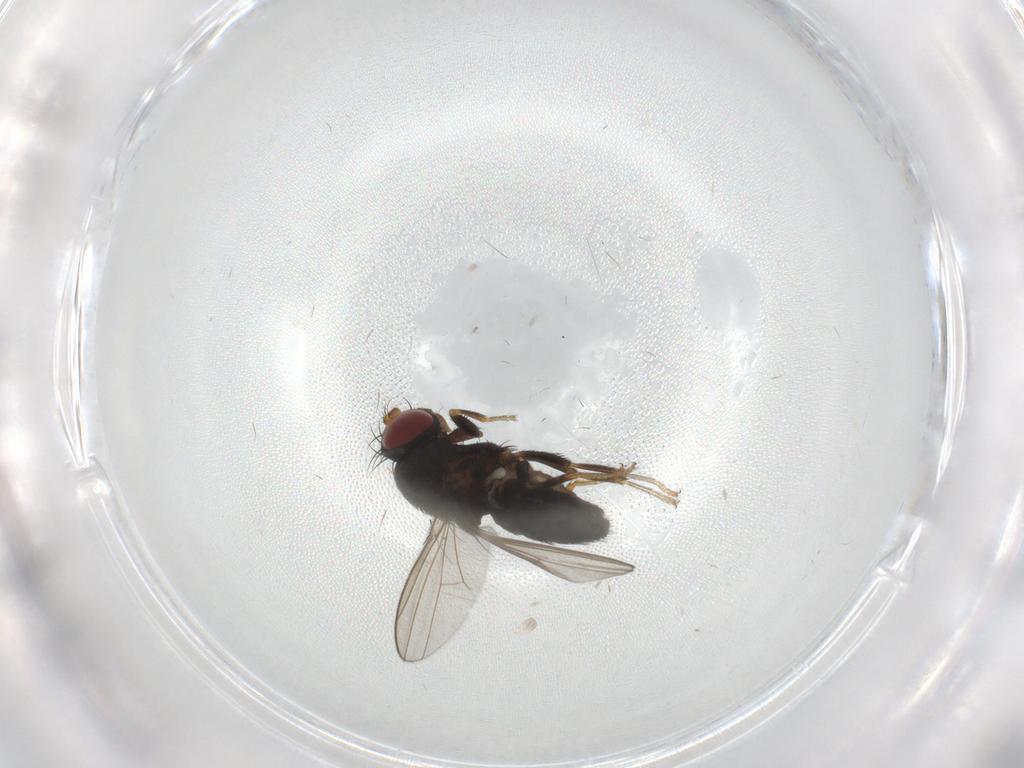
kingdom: Animalia
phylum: Arthropoda
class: Insecta
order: Diptera
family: Ephydridae
